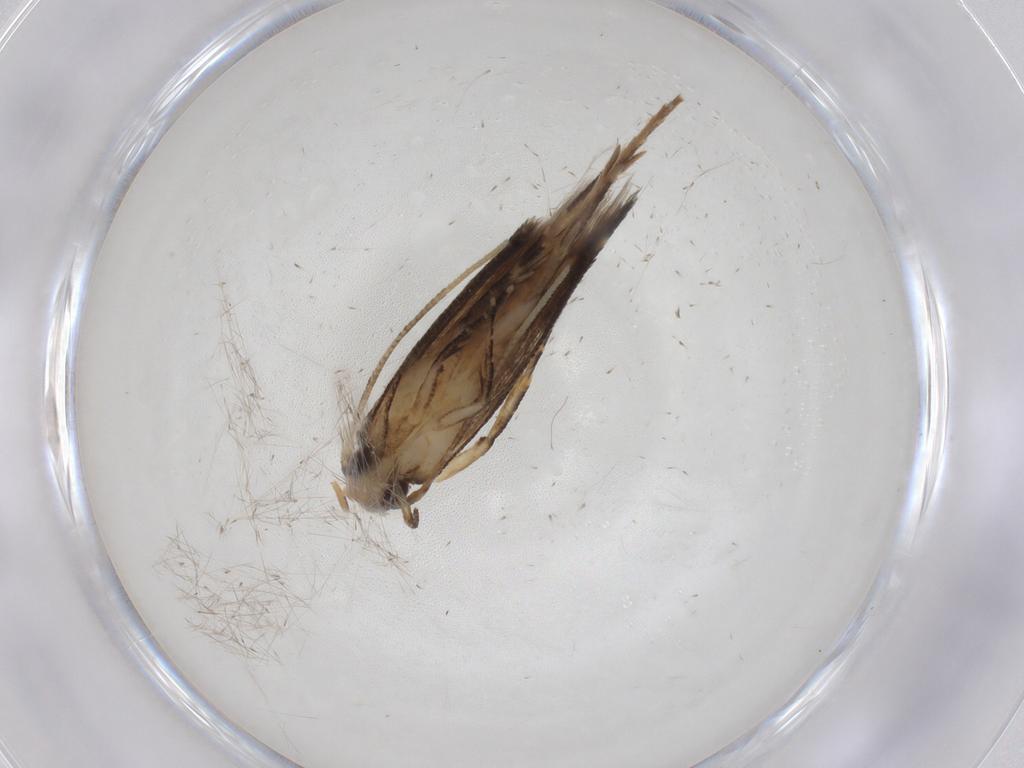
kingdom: Animalia
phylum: Arthropoda
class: Insecta
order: Lepidoptera
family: Cosmopterigidae
